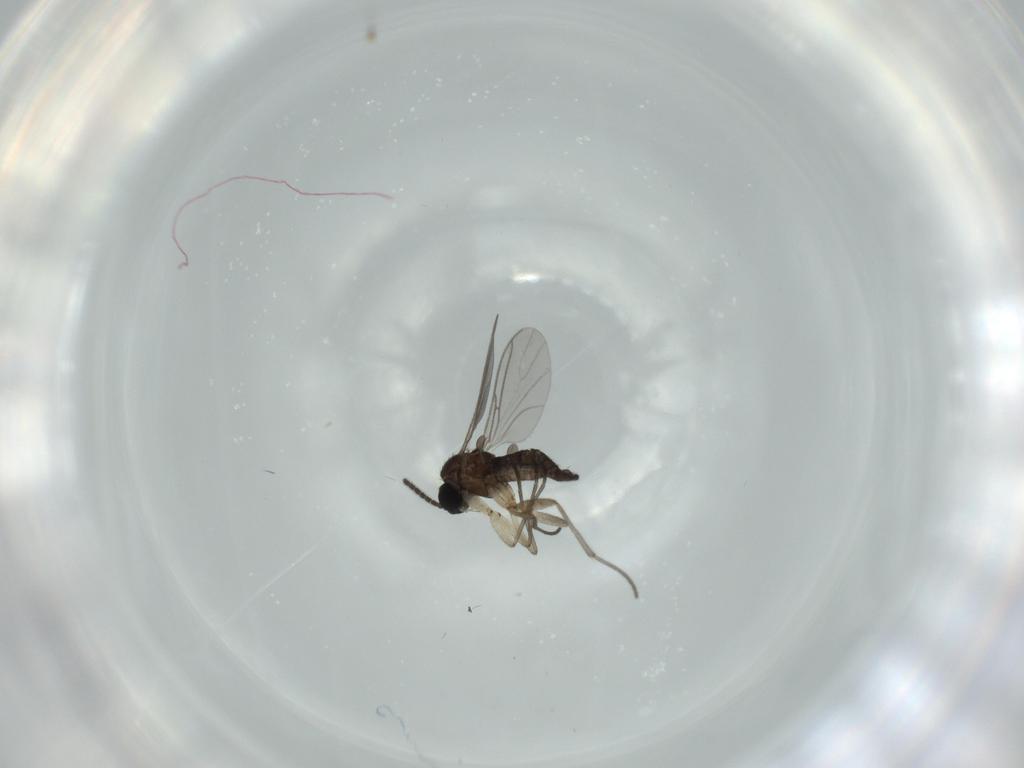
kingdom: Animalia
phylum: Arthropoda
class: Insecta
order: Diptera
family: Sciaridae
